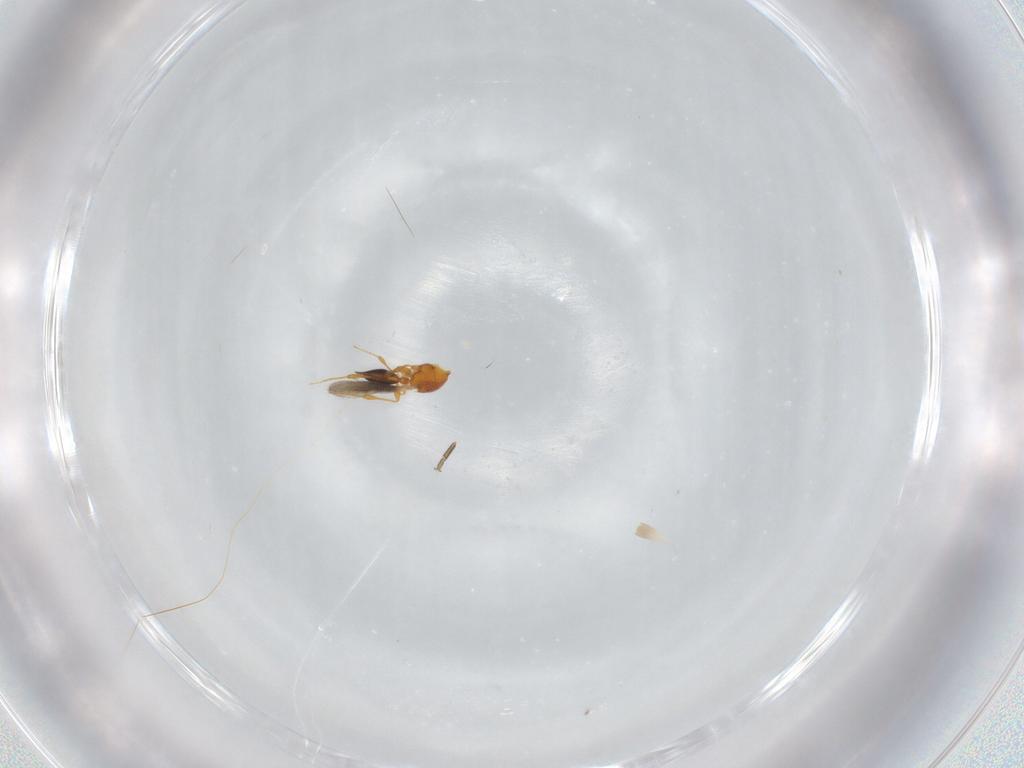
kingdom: Animalia
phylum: Arthropoda
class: Insecta
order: Hymenoptera
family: Platygastridae
